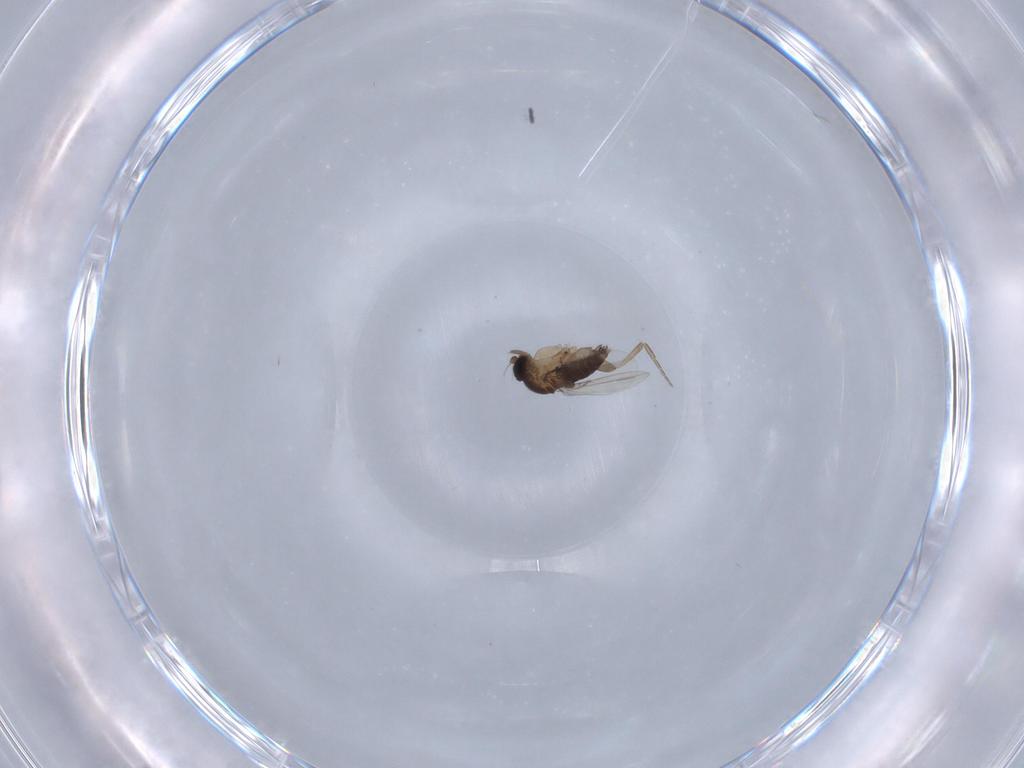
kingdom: Animalia
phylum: Arthropoda
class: Insecta
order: Diptera
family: Phoridae
